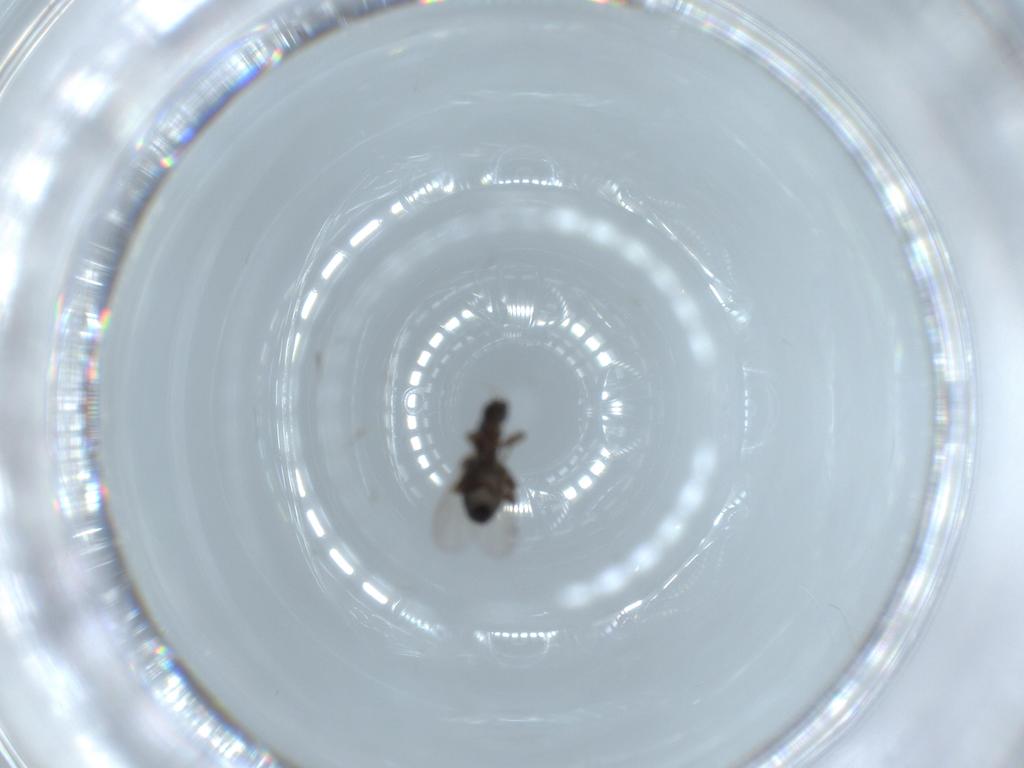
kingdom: Animalia
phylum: Arthropoda
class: Insecta
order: Diptera
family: Phoridae
